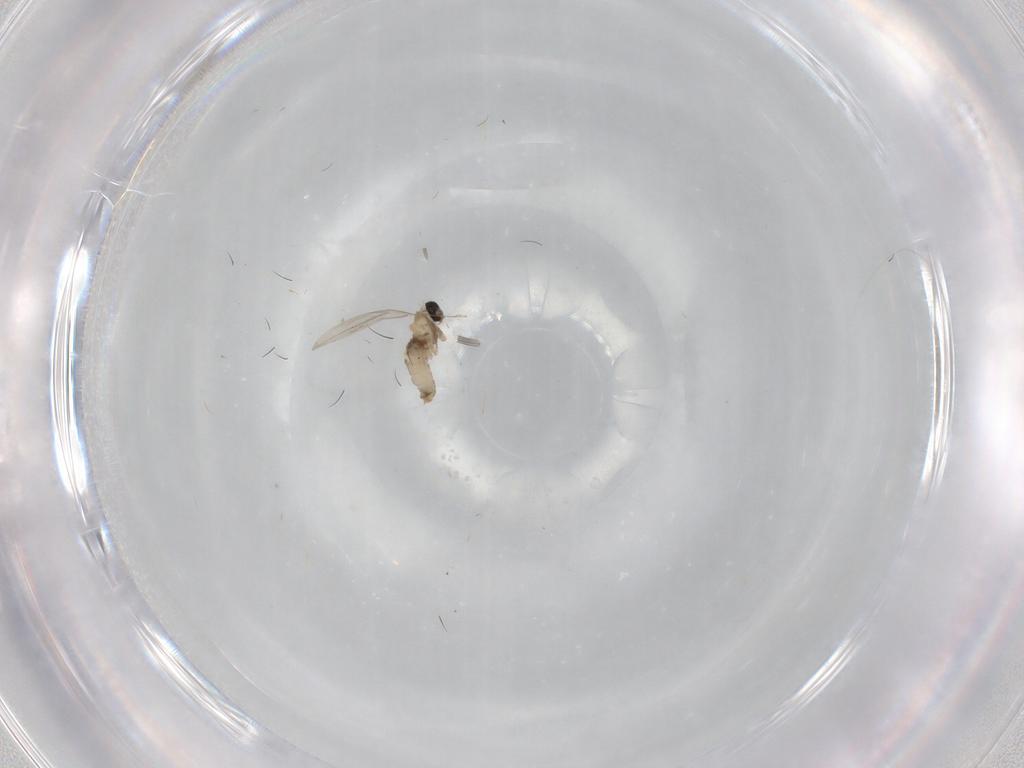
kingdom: Animalia
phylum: Arthropoda
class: Insecta
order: Diptera
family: Cecidomyiidae
